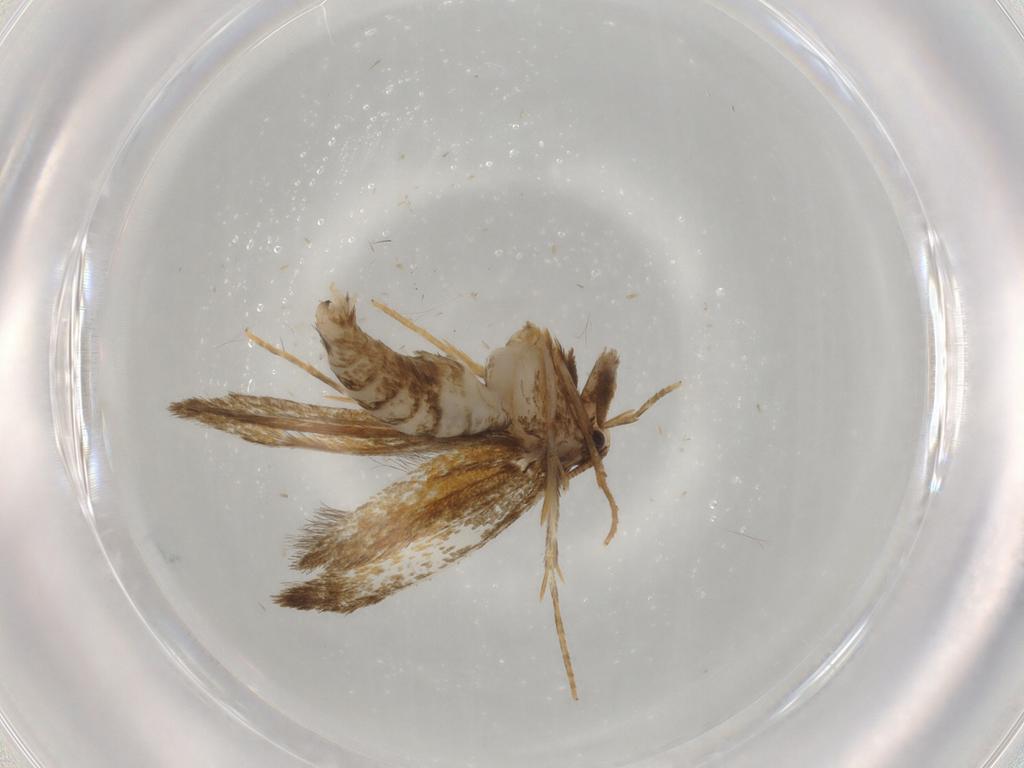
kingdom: Animalia
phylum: Arthropoda
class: Insecta
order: Lepidoptera
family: Tineidae
